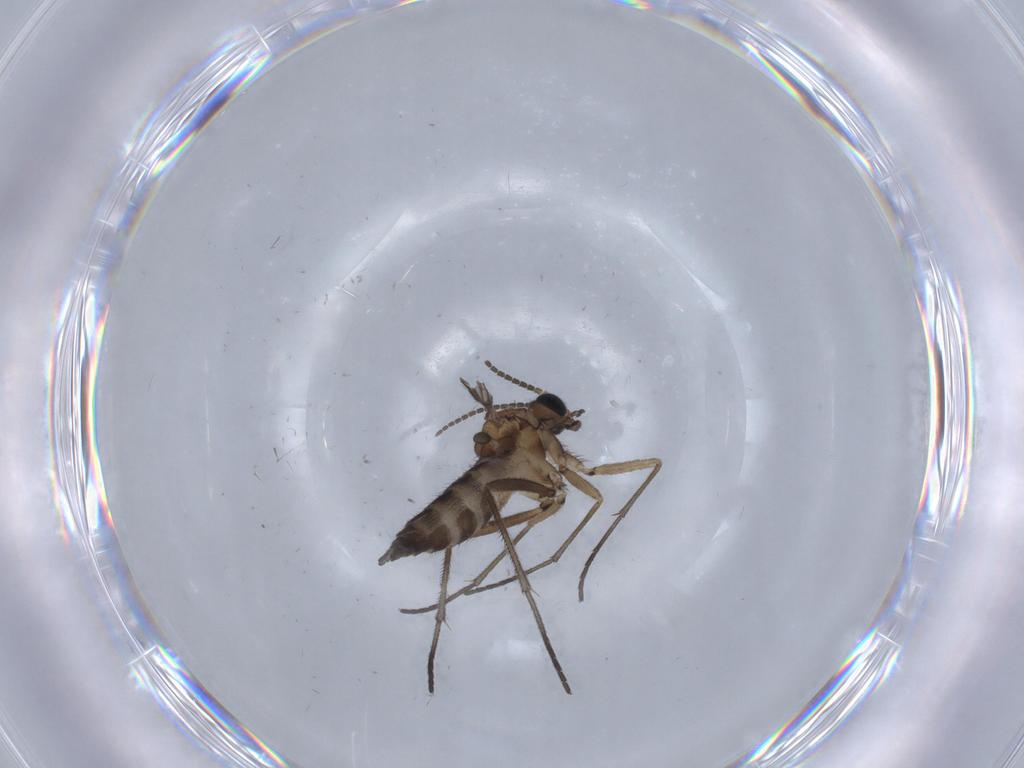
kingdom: Animalia
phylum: Arthropoda
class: Insecta
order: Diptera
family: Sciaridae
